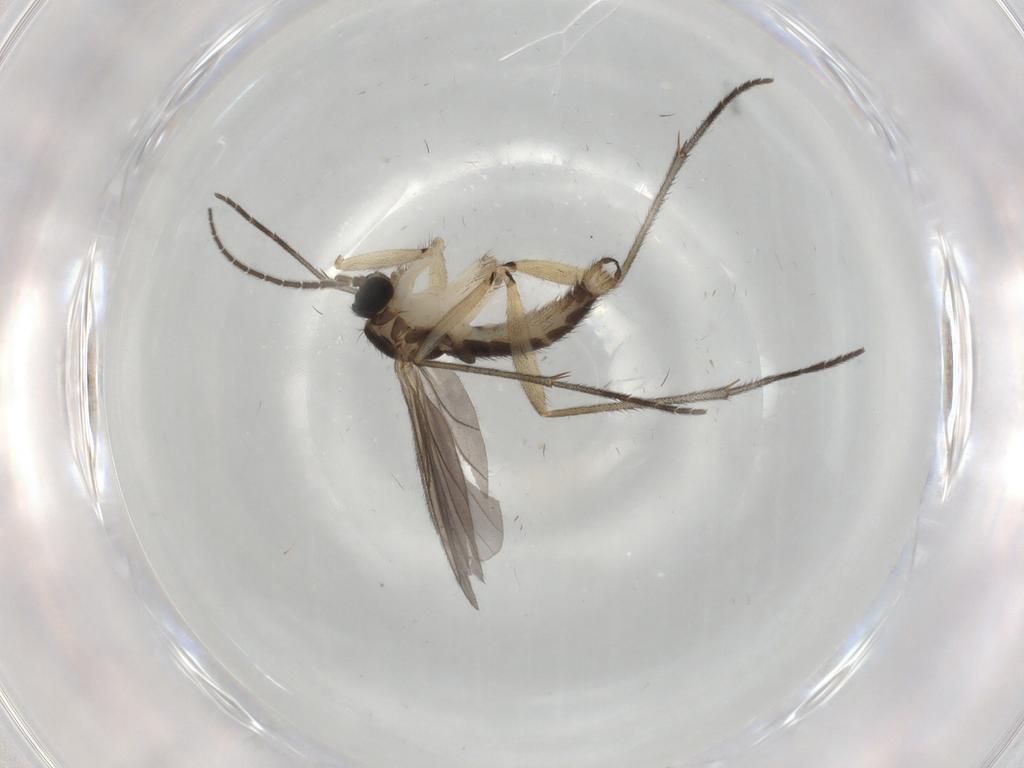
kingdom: Animalia
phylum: Arthropoda
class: Insecta
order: Diptera
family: Sciaridae
